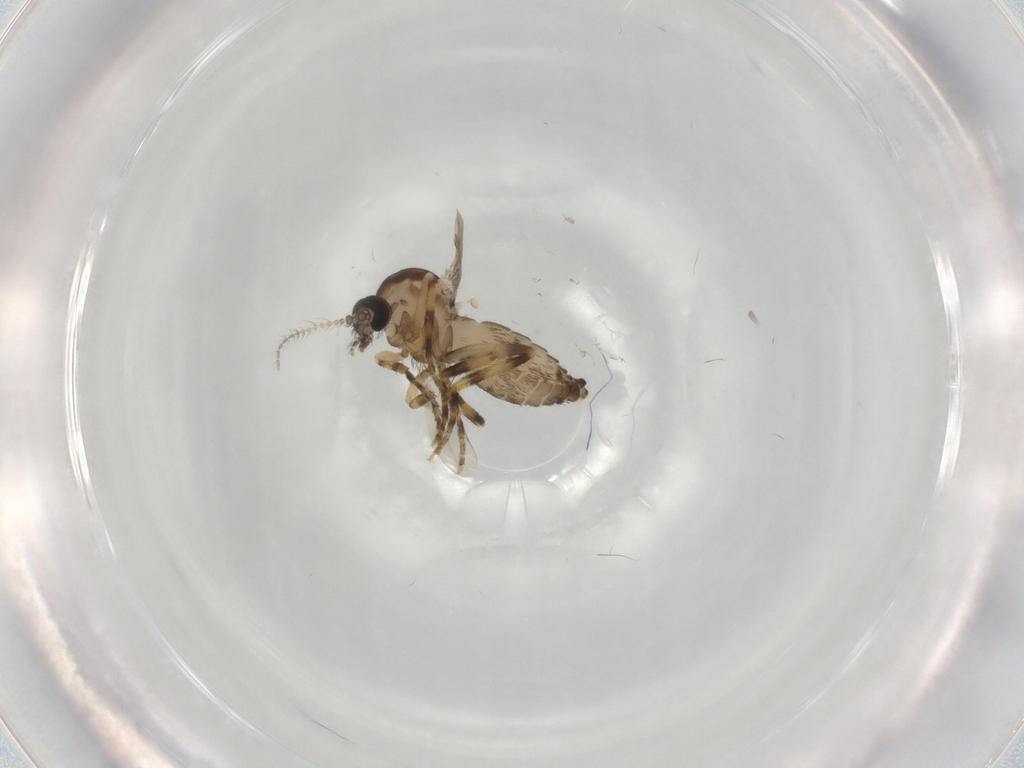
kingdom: Animalia
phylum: Arthropoda
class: Insecta
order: Diptera
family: Ceratopogonidae
